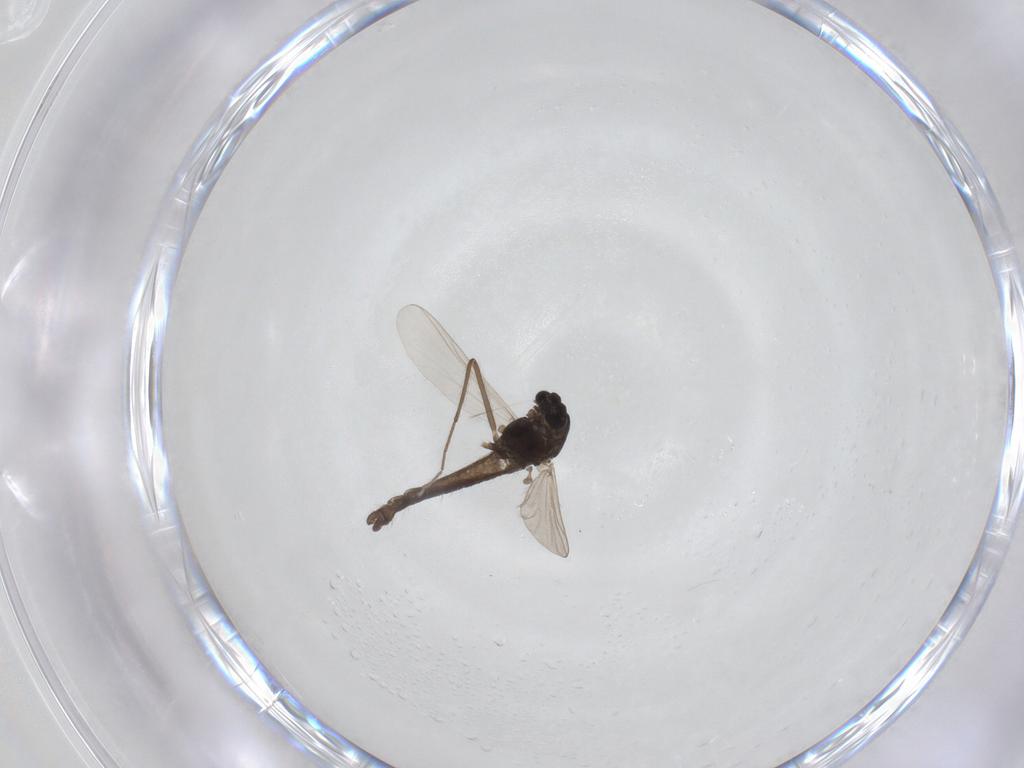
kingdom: Animalia
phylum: Arthropoda
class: Insecta
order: Diptera
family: Chironomidae
